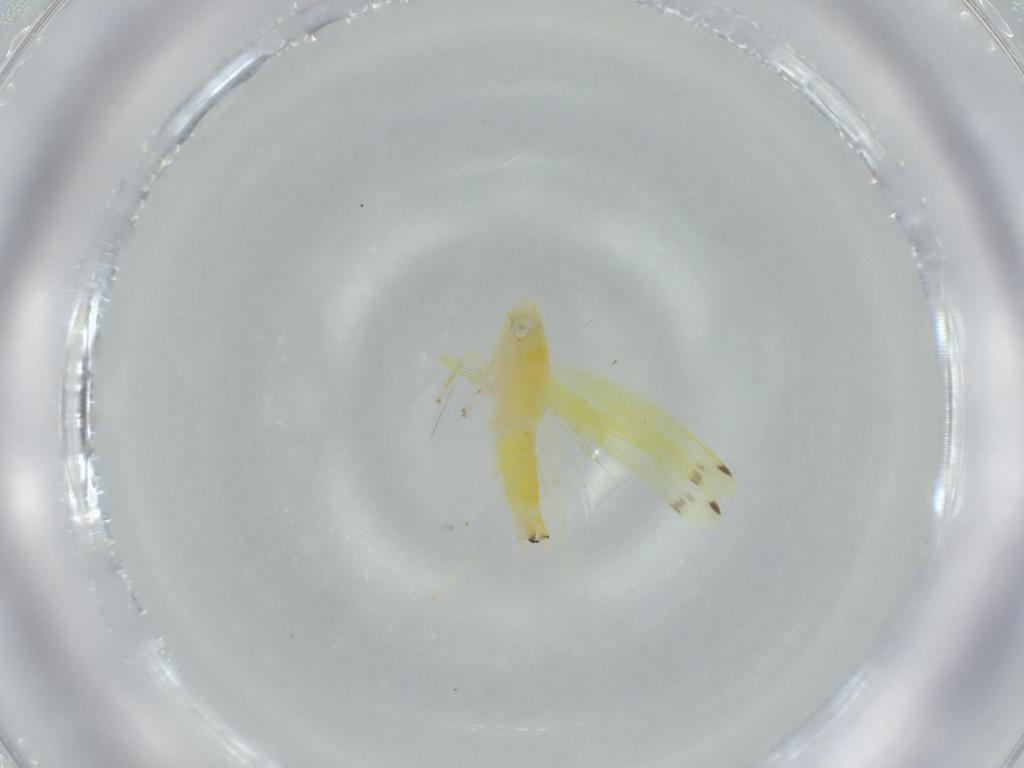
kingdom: Animalia
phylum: Arthropoda
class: Insecta
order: Hemiptera
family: Cicadellidae
